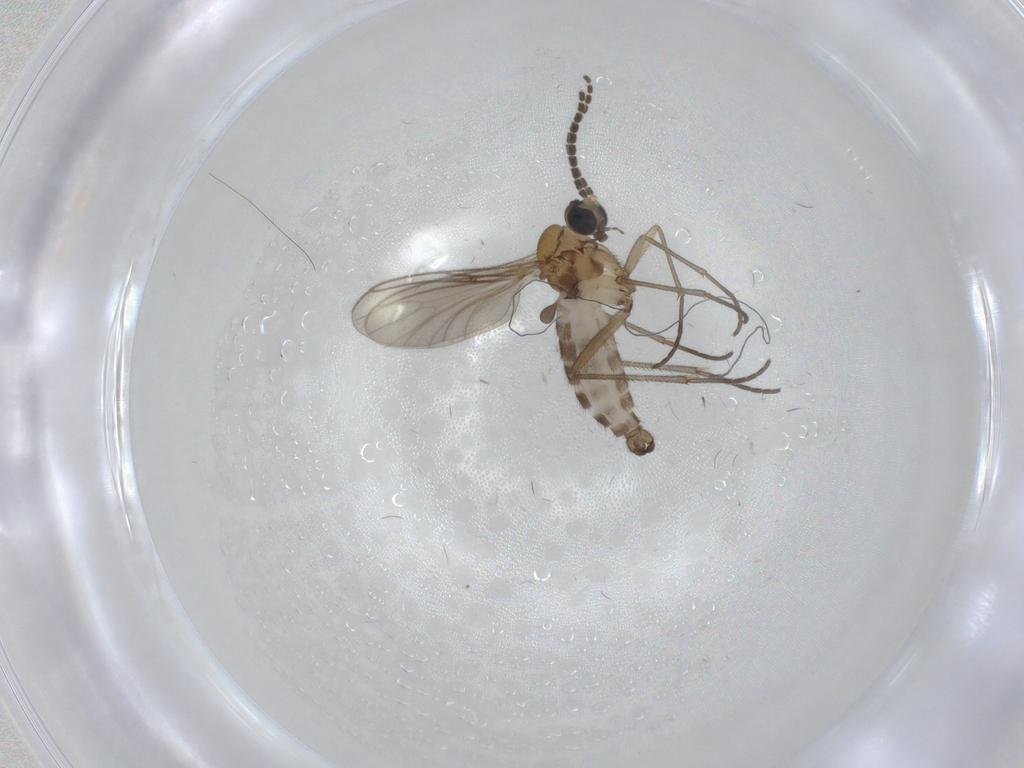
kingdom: Animalia
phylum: Arthropoda
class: Insecta
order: Diptera
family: Sciaridae
